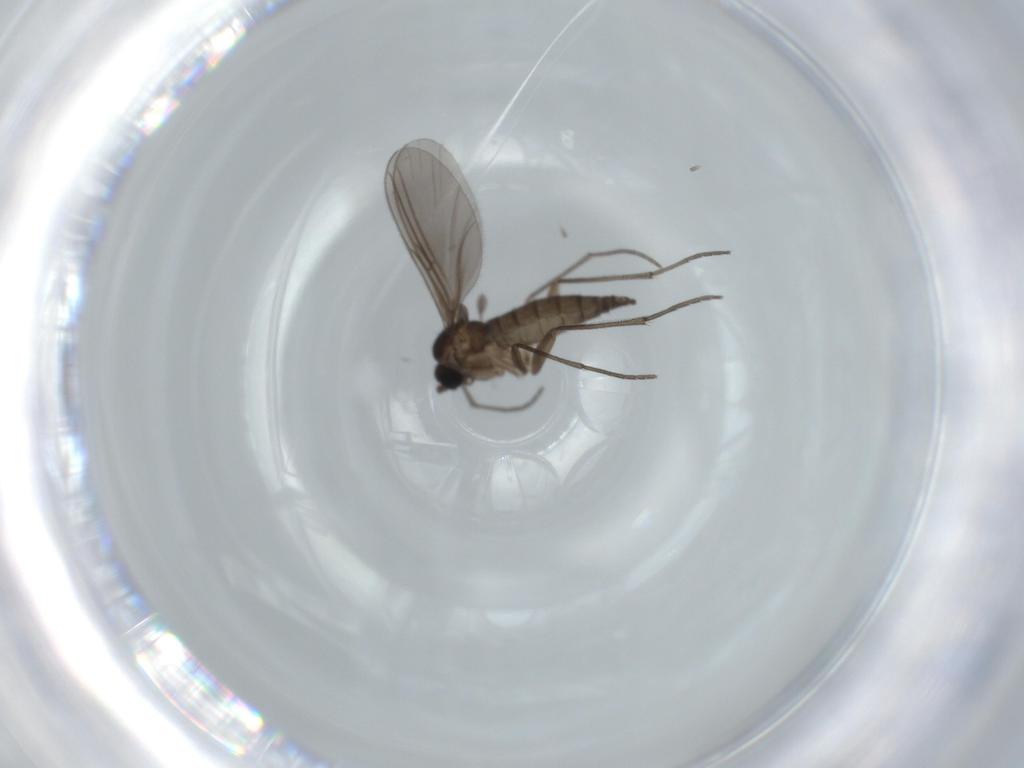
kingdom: Animalia
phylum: Arthropoda
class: Insecta
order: Diptera
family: Sciaridae
